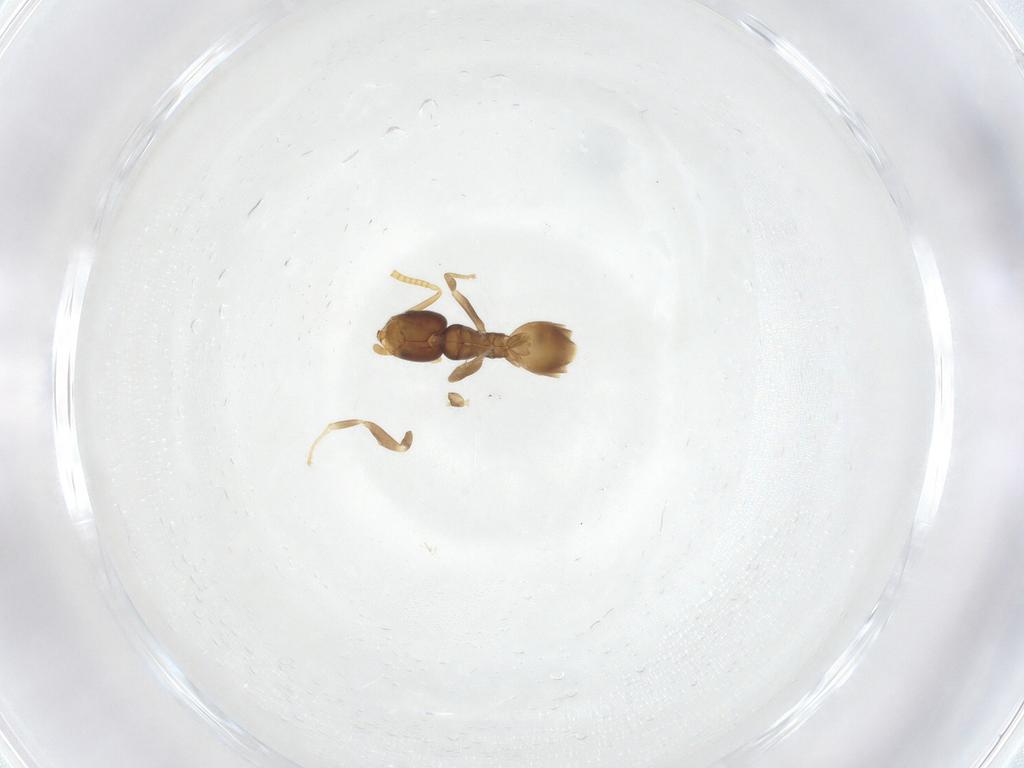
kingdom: Animalia
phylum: Arthropoda
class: Insecta
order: Hymenoptera
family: Formicidae
